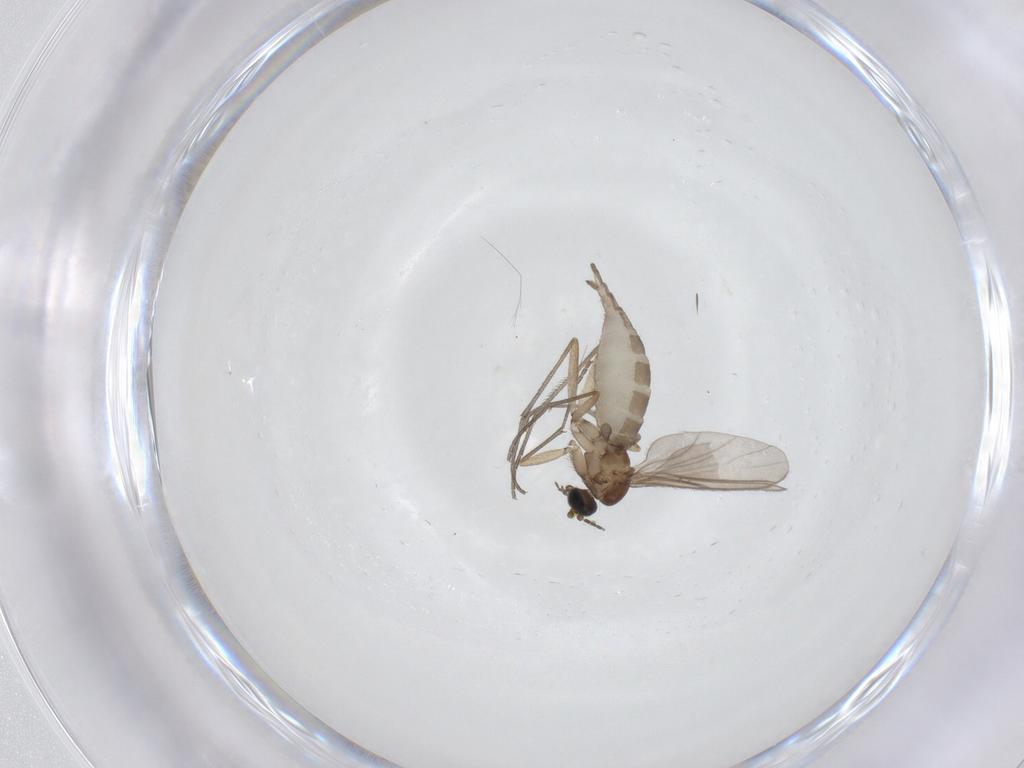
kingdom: Animalia
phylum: Arthropoda
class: Insecta
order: Diptera
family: Sciaridae
